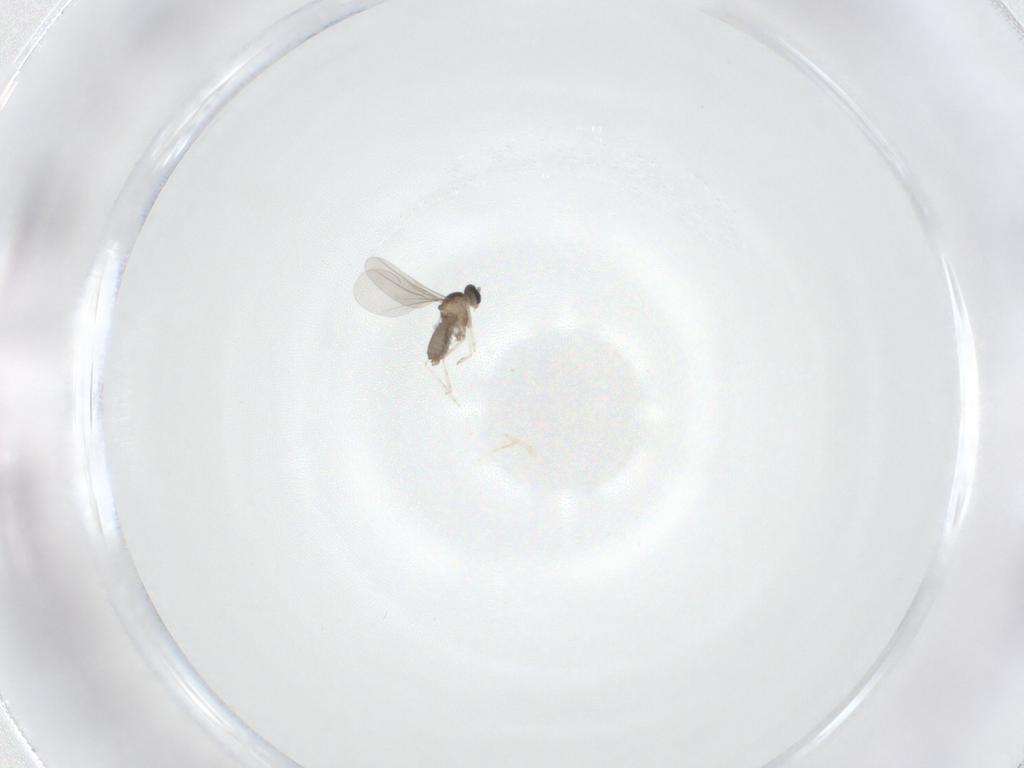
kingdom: Animalia
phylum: Arthropoda
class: Insecta
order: Diptera
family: Cecidomyiidae
